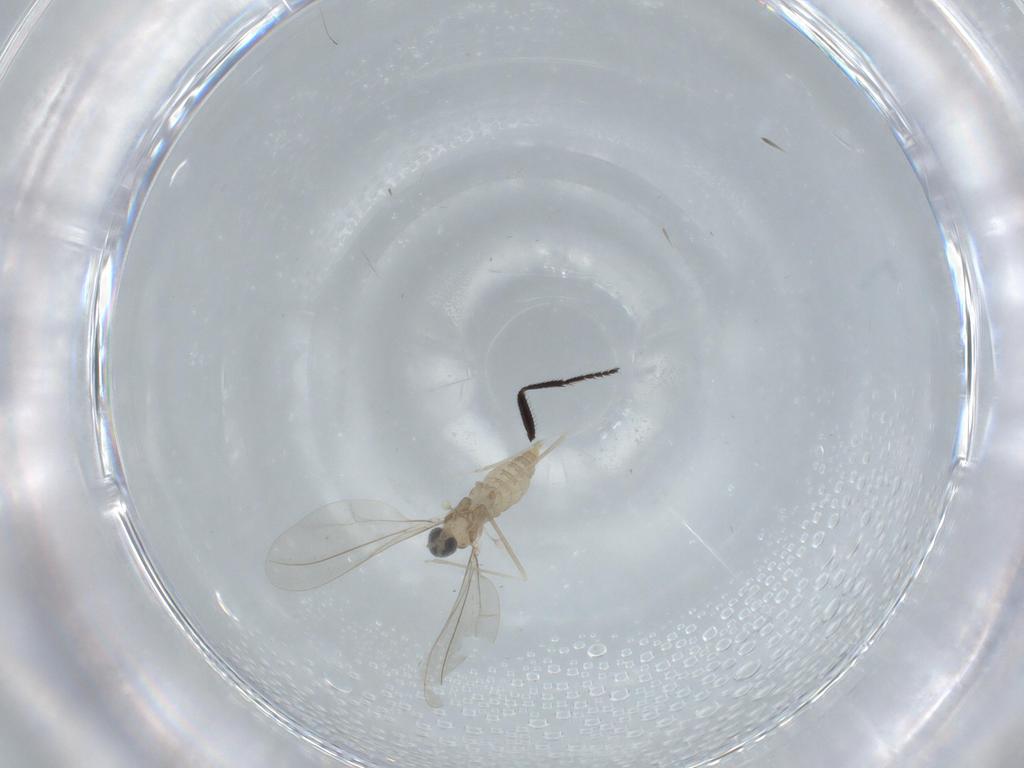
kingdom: Animalia
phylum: Arthropoda
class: Insecta
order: Diptera
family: Cecidomyiidae
